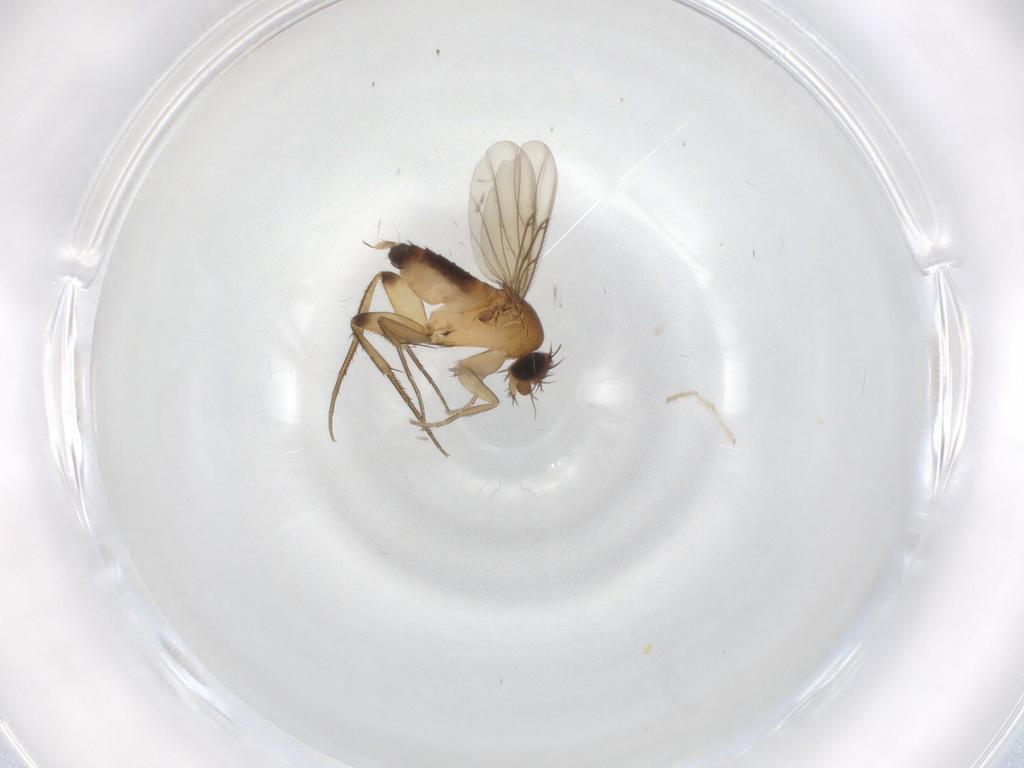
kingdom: Animalia
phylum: Arthropoda
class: Insecta
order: Diptera
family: Phoridae
